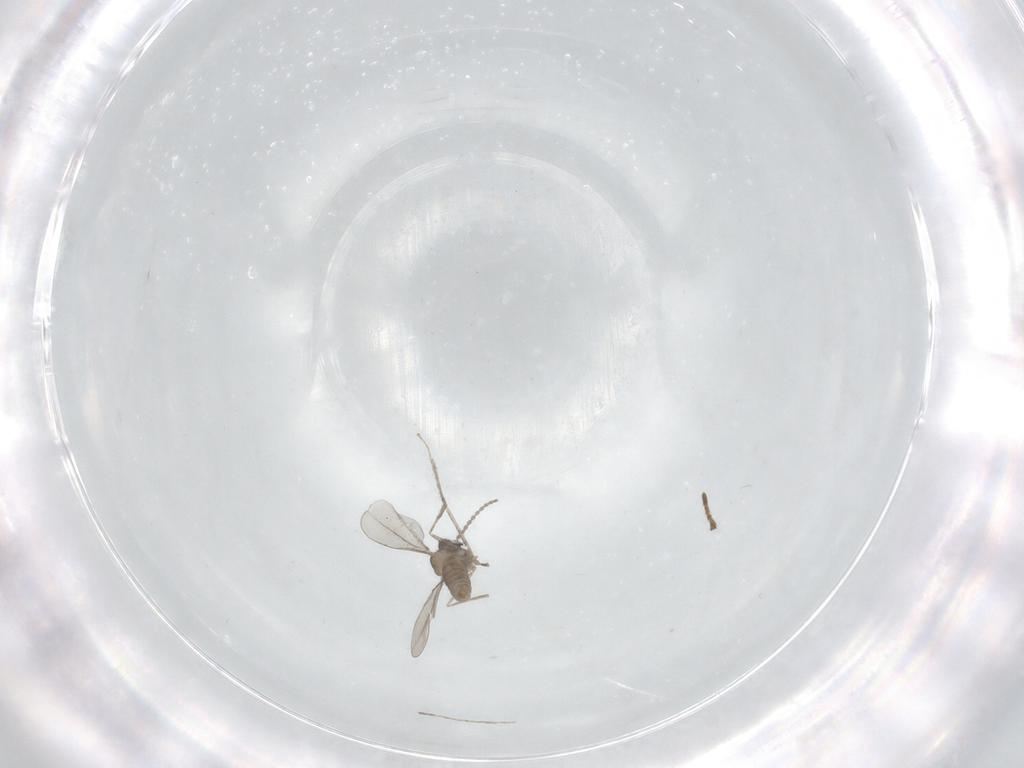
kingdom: Animalia
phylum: Arthropoda
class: Insecta
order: Diptera
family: Cecidomyiidae
